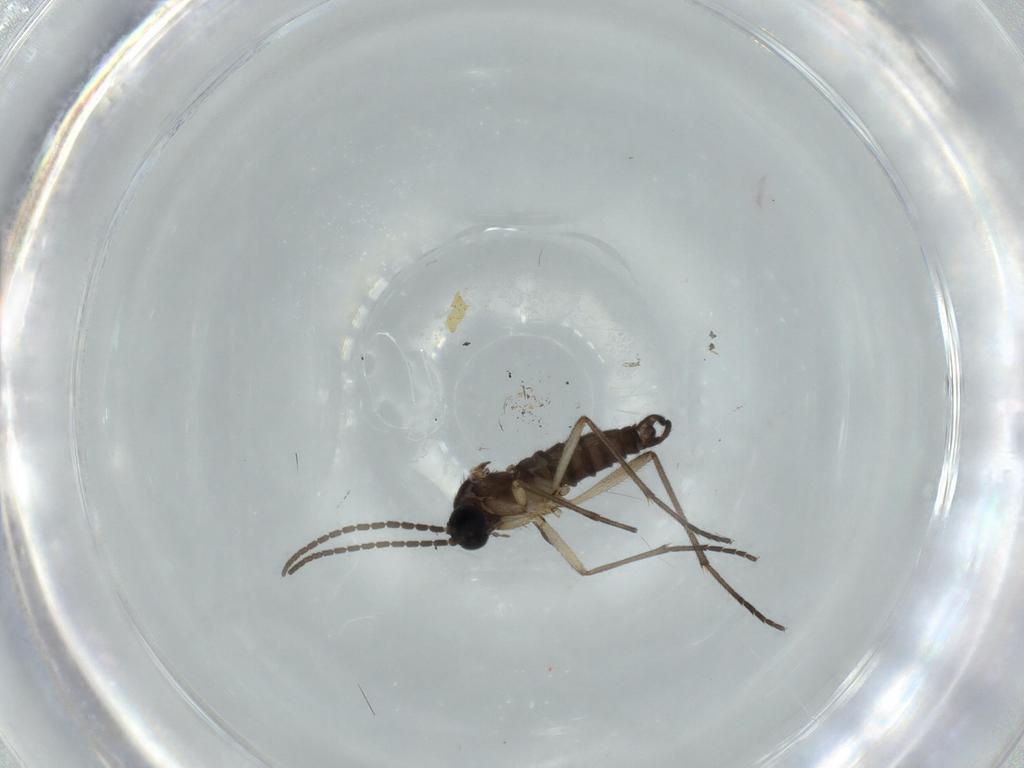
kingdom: Animalia
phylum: Arthropoda
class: Insecta
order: Diptera
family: Sciaridae
